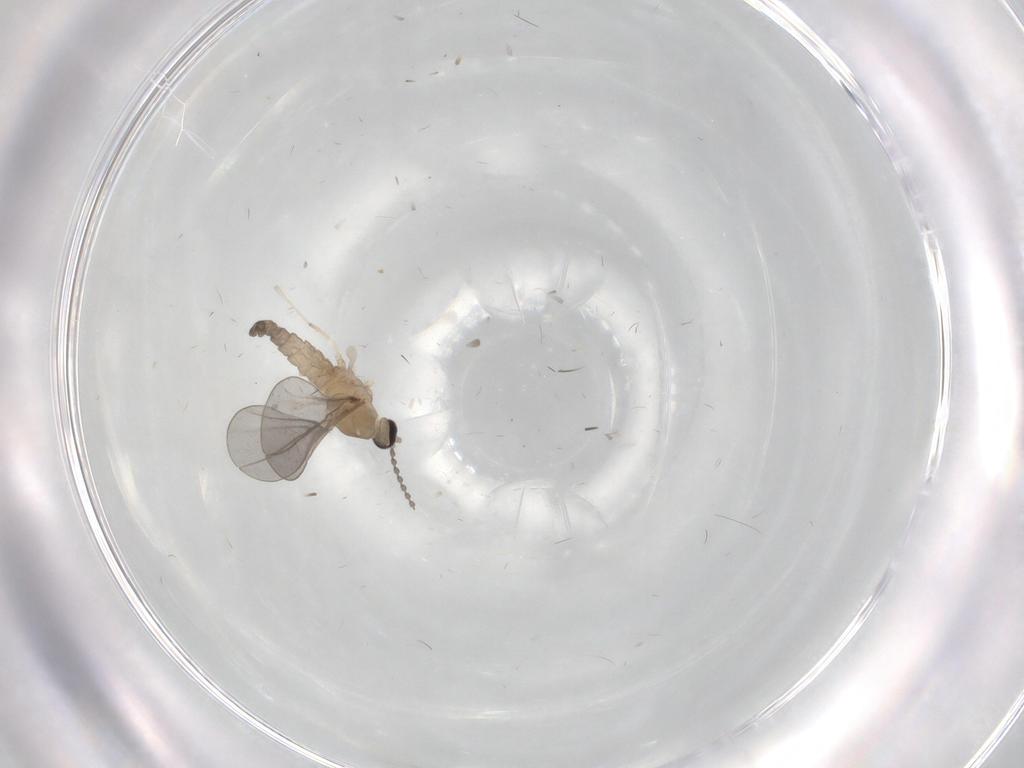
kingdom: Animalia
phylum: Arthropoda
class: Insecta
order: Diptera
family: Cecidomyiidae
